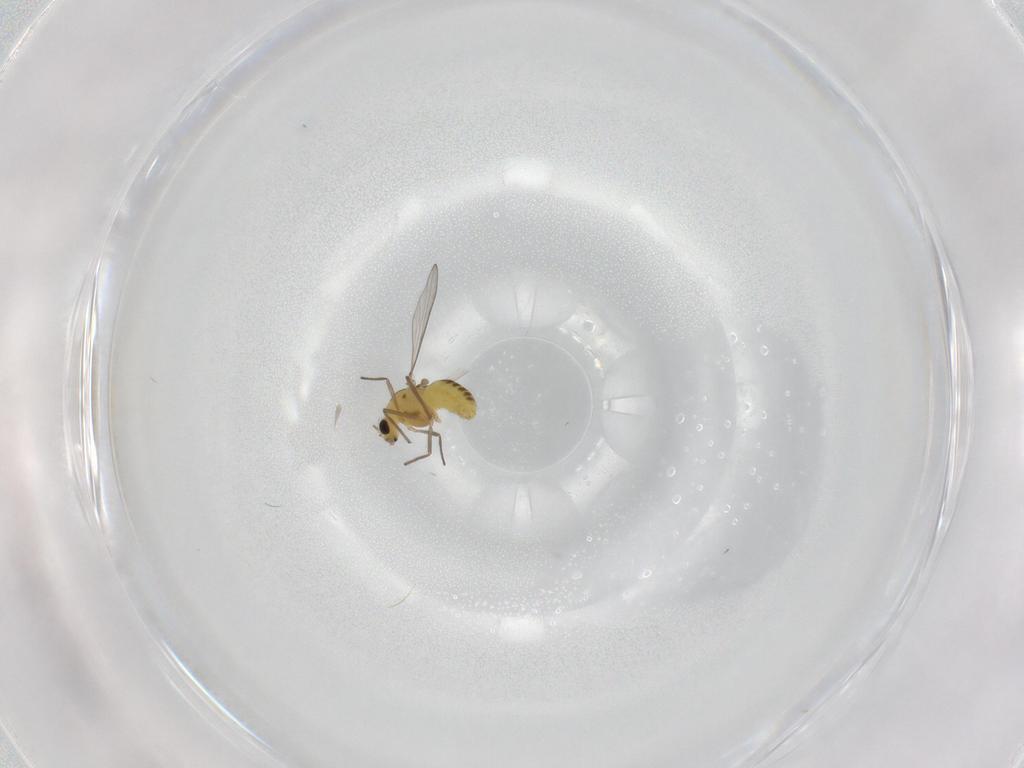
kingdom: Animalia
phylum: Arthropoda
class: Insecta
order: Diptera
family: Chironomidae
